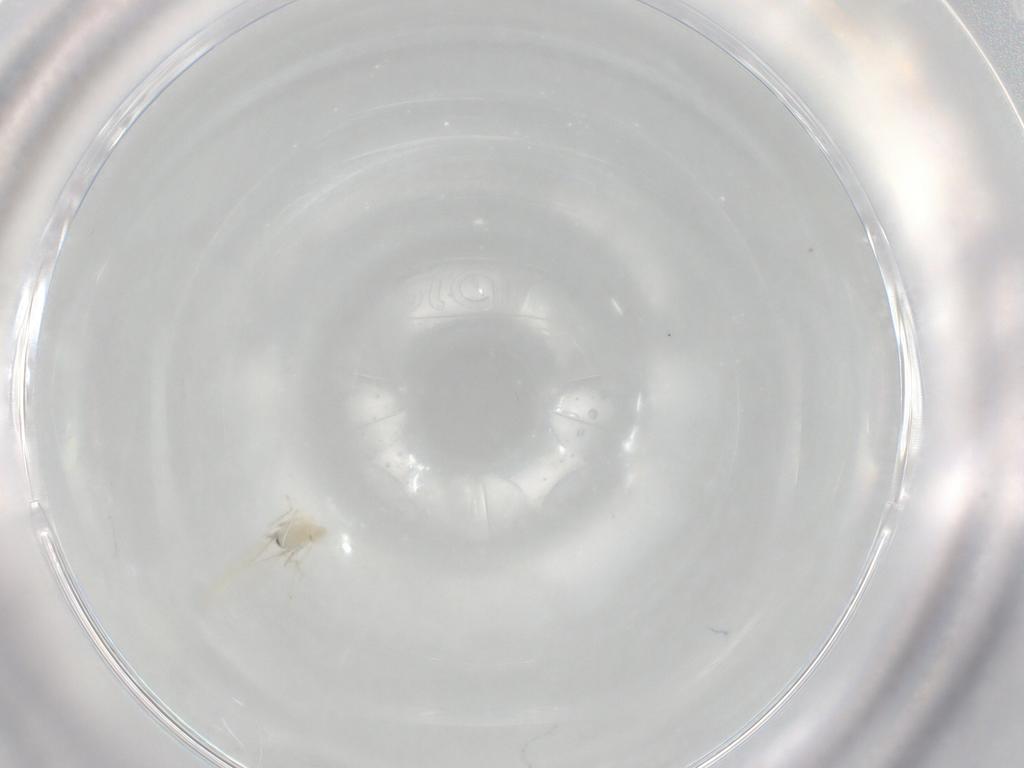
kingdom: Animalia
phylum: Arthropoda
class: Insecta
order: Diptera
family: Cecidomyiidae
